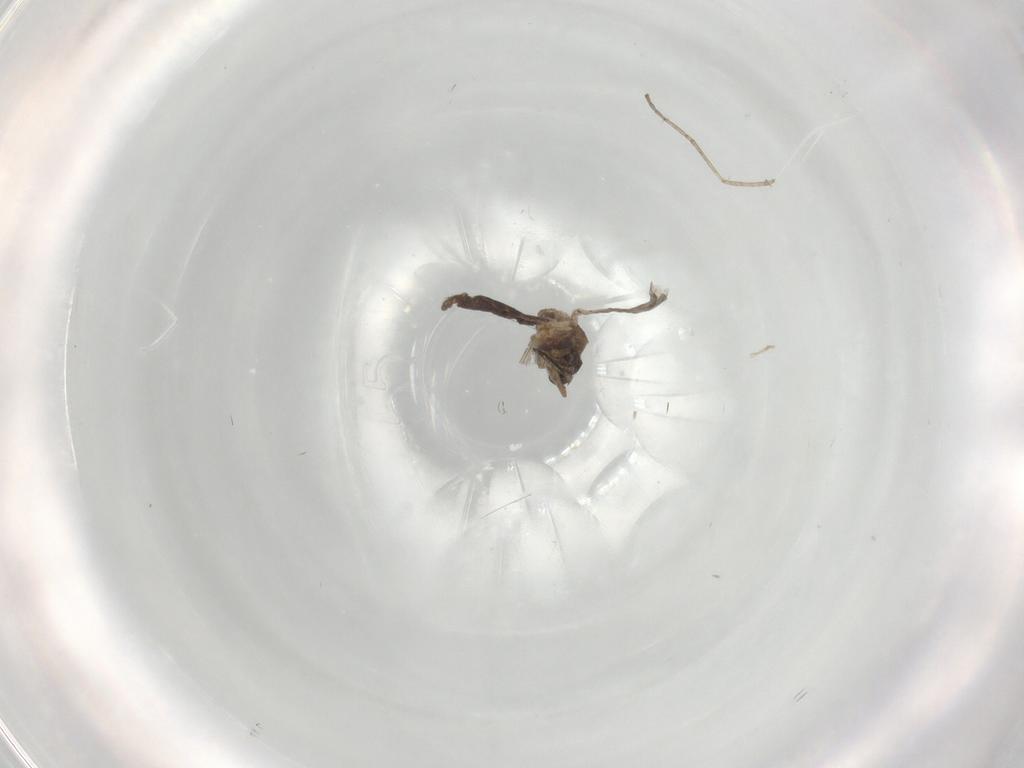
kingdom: Animalia
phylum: Arthropoda
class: Insecta
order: Diptera
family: Ceratopogonidae
